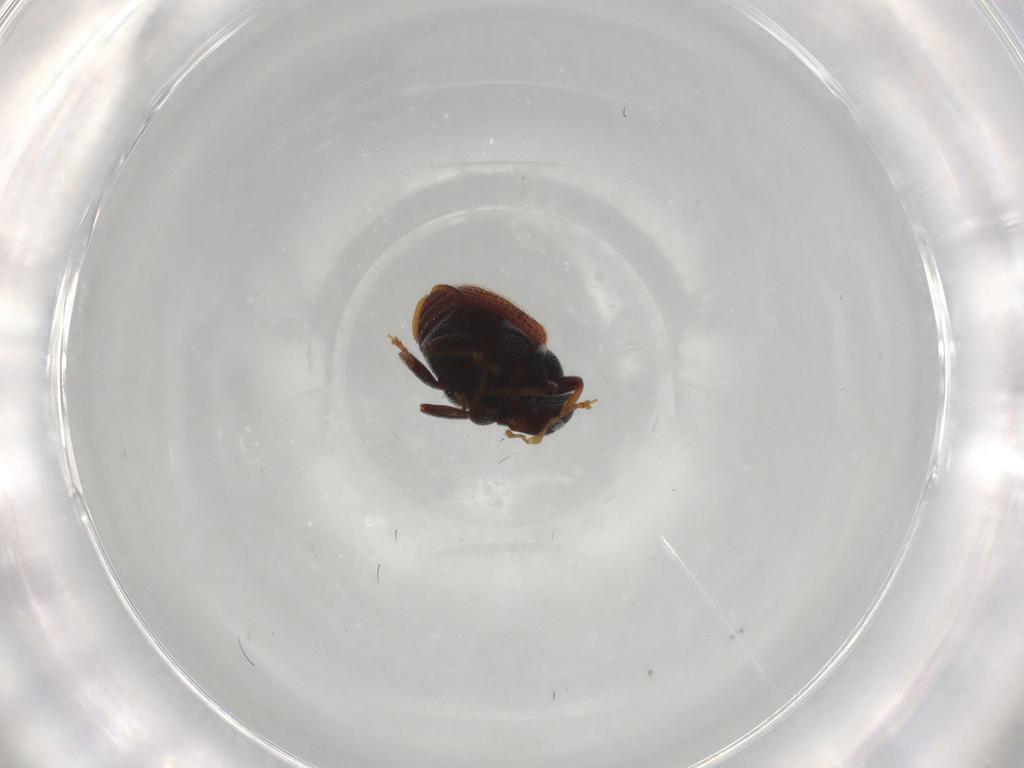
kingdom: Animalia
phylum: Arthropoda
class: Insecta
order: Coleoptera
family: Curculionidae
